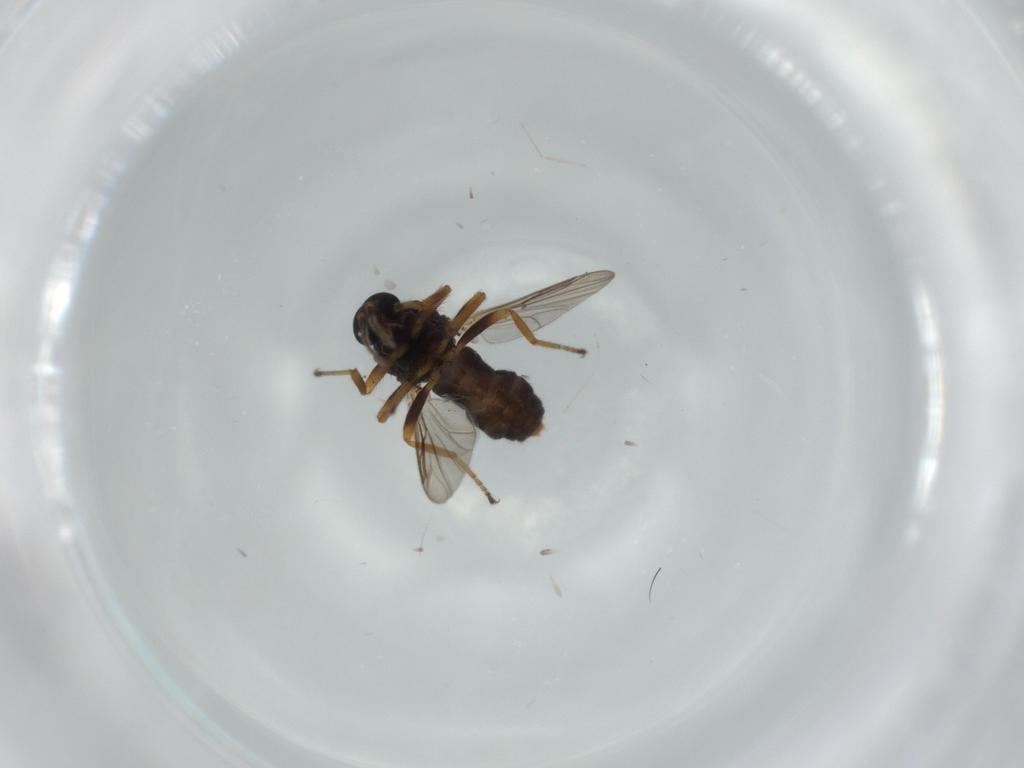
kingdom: Animalia
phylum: Arthropoda
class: Insecta
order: Diptera
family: Ceratopogonidae
